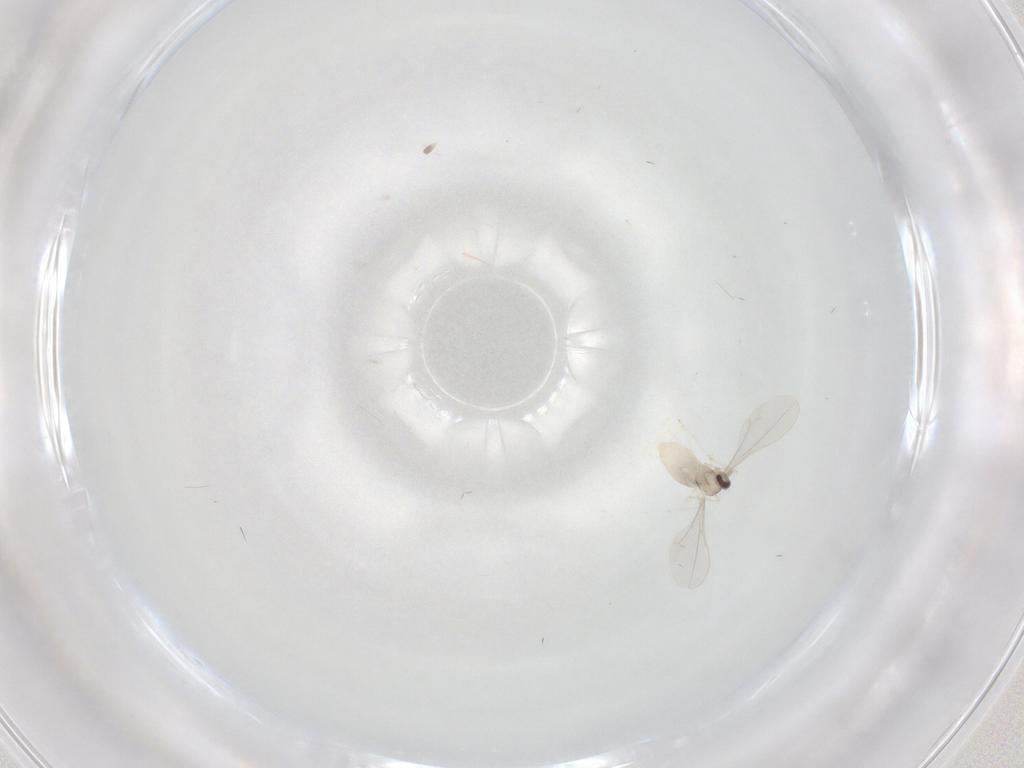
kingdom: Animalia
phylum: Arthropoda
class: Insecta
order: Diptera
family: Cecidomyiidae
